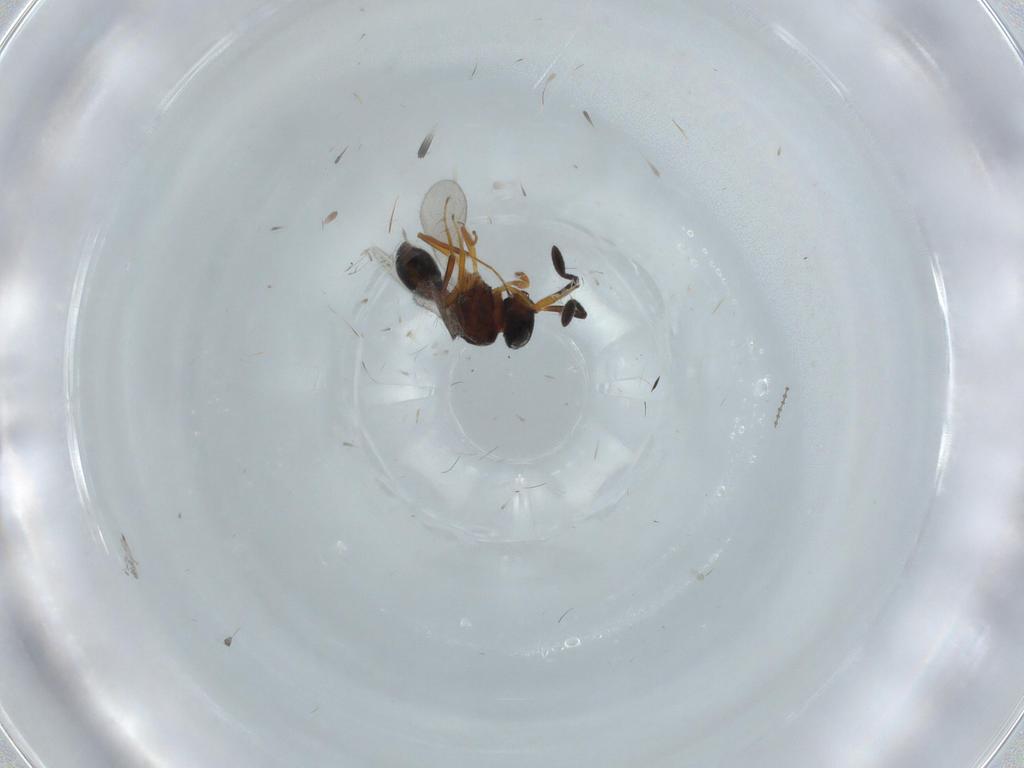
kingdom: Animalia
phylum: Arthropoda
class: Insecta
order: Hymenoptera
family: Scelionidae
